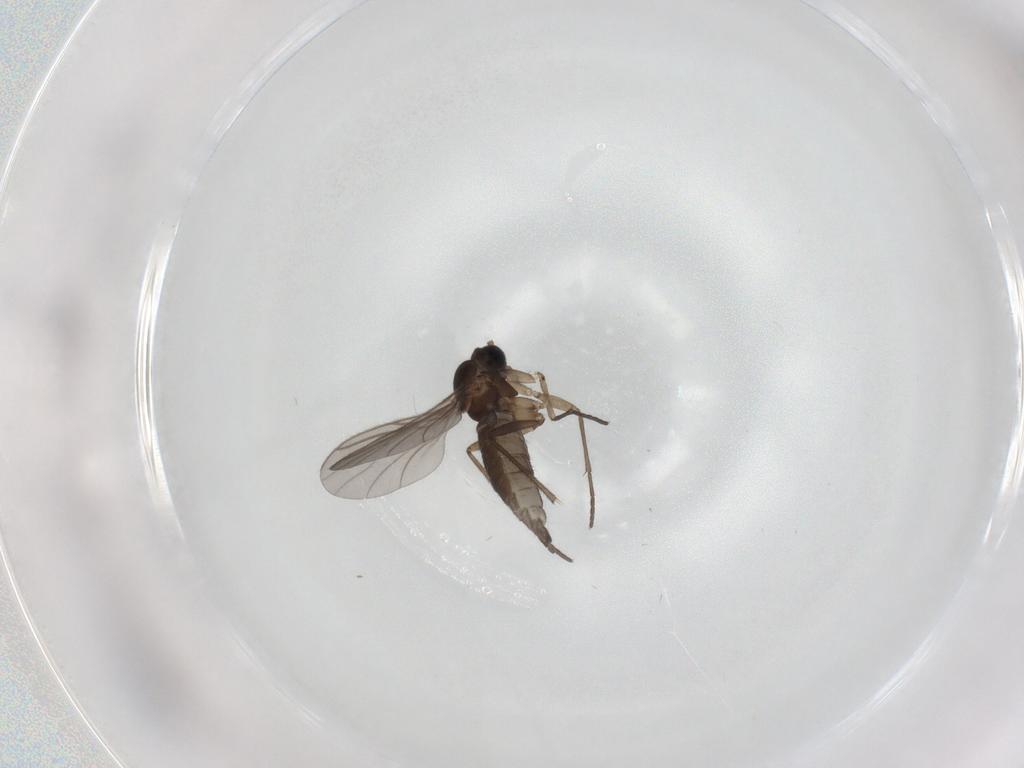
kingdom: Animalia
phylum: Arthropoda
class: Insecta
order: Diptera
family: Sciaridae
